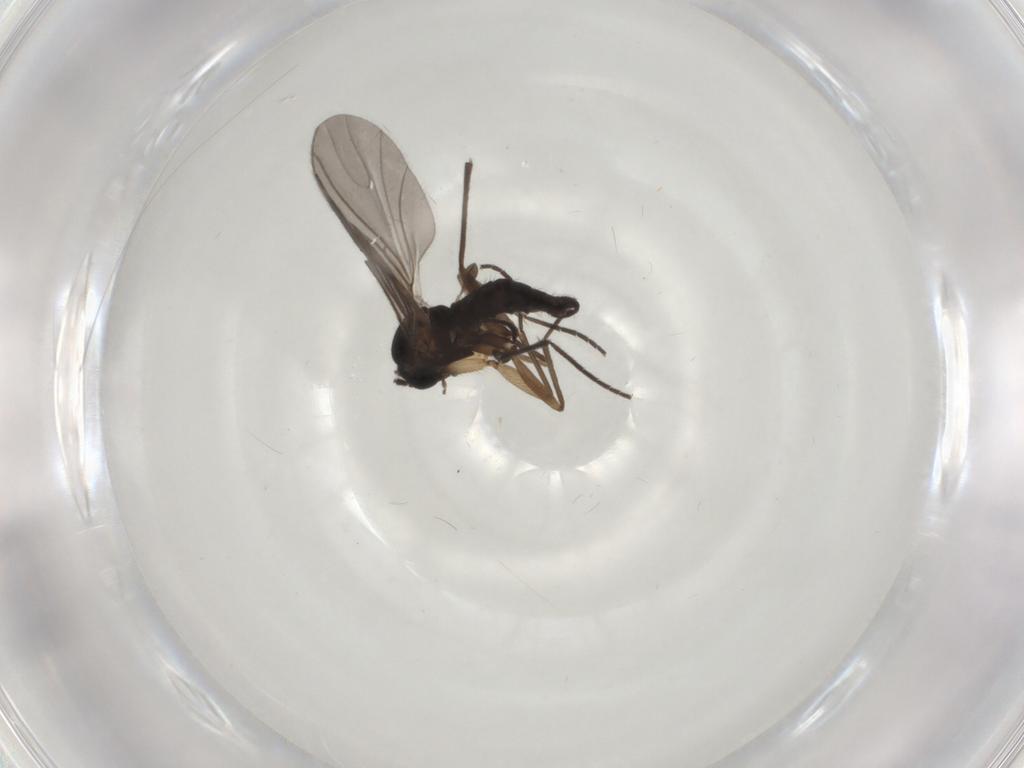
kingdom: Animalia
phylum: Arthropoda
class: Insecta
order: Diptera
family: Sciaridae
